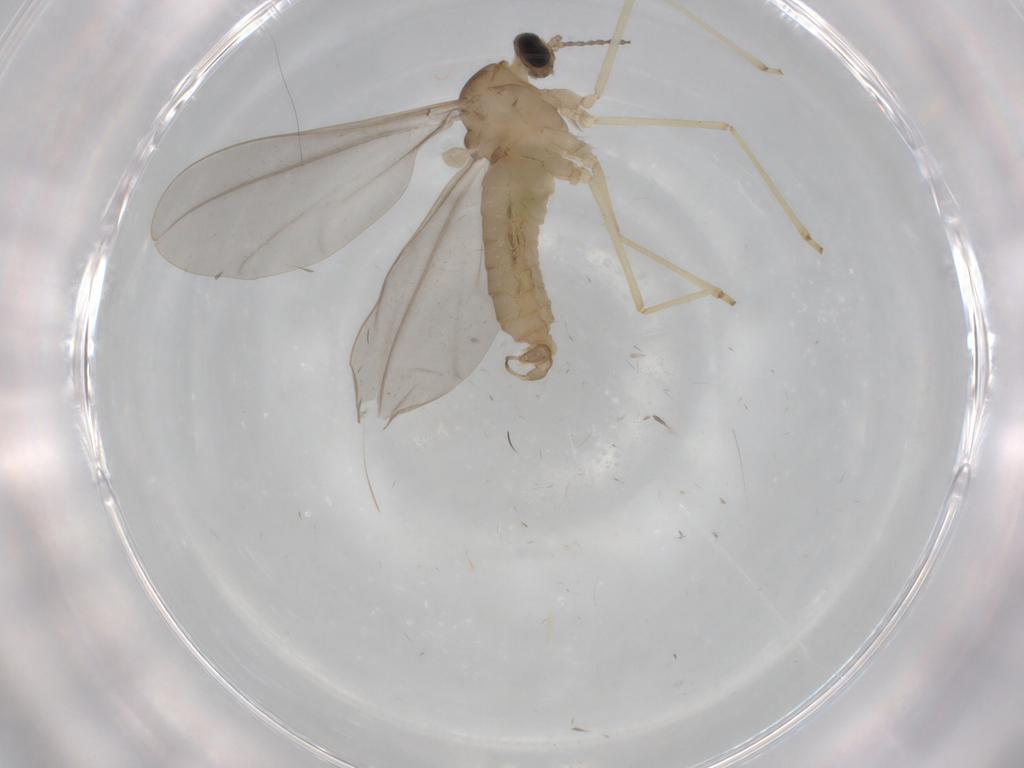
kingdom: Animalia
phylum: Arthropoda
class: Insecta
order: Diptera
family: Cecidomyiidae
